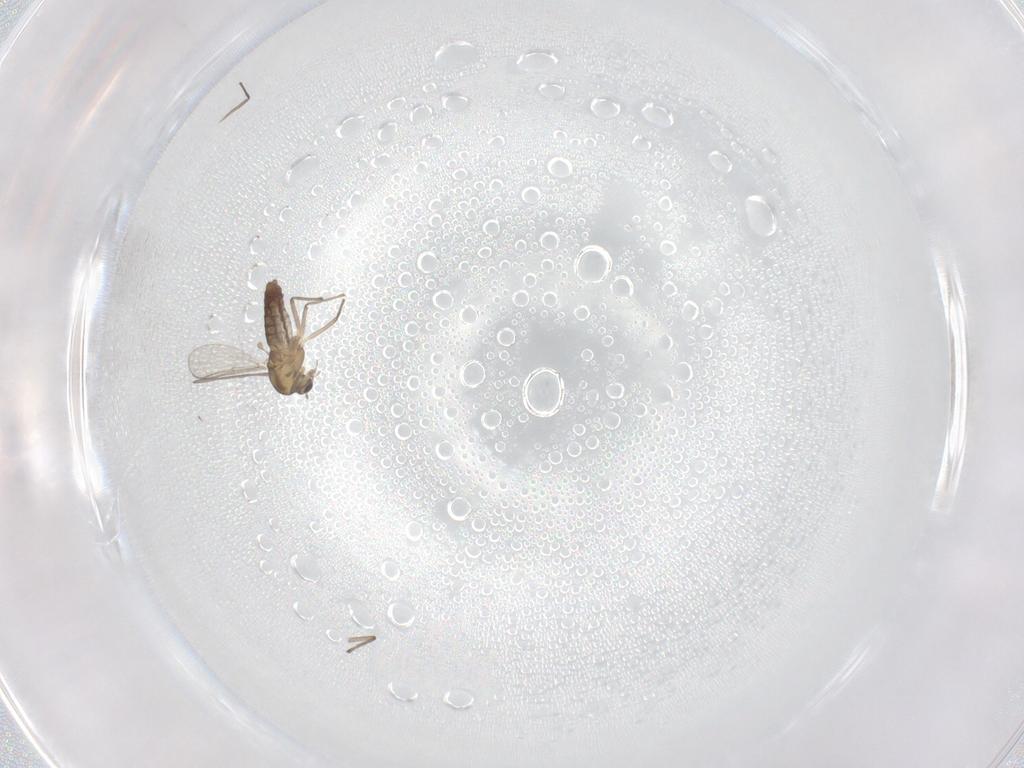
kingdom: Animalia
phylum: Arthropoda
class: Insecta
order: Diptera
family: Chironomidae
